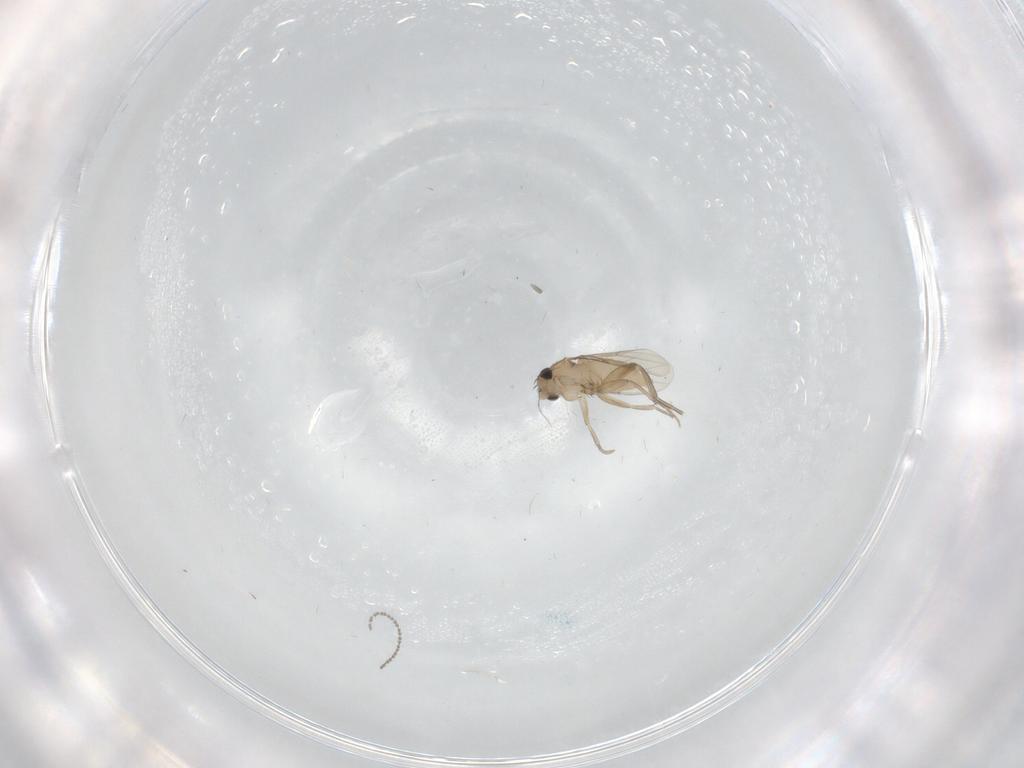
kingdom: Animalia
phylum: Arthropoda
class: Insecta
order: Diptera
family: Phoridae
